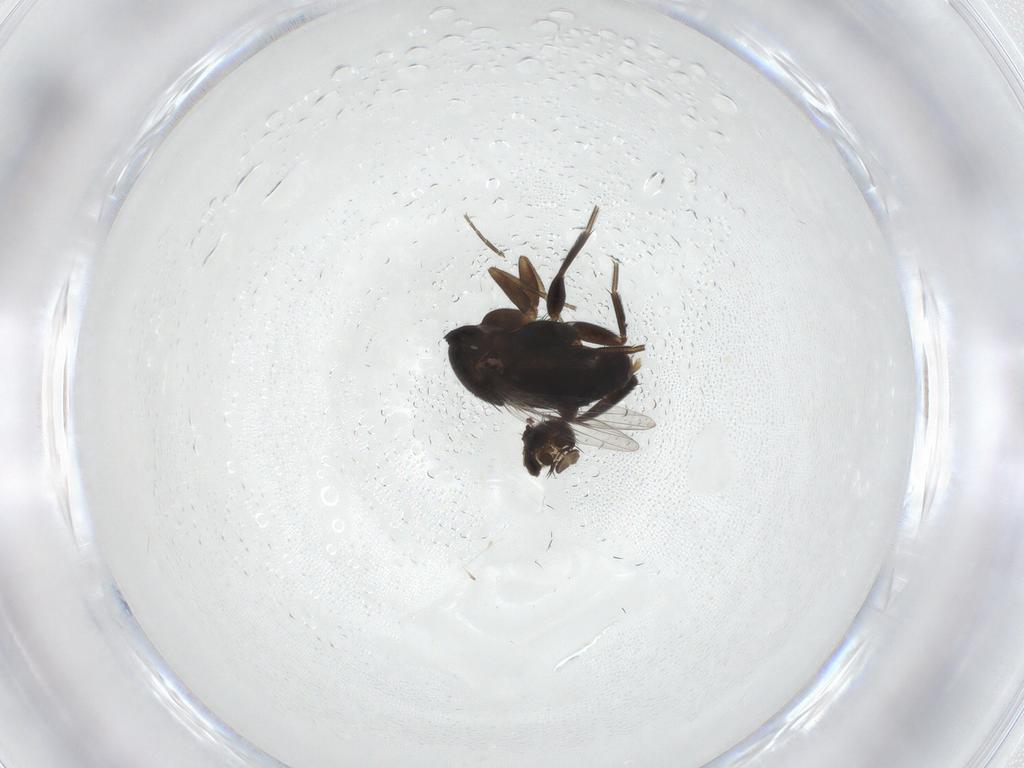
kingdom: Animalia
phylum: Arthropoda
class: Insecta
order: Diptera
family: Phoridae
